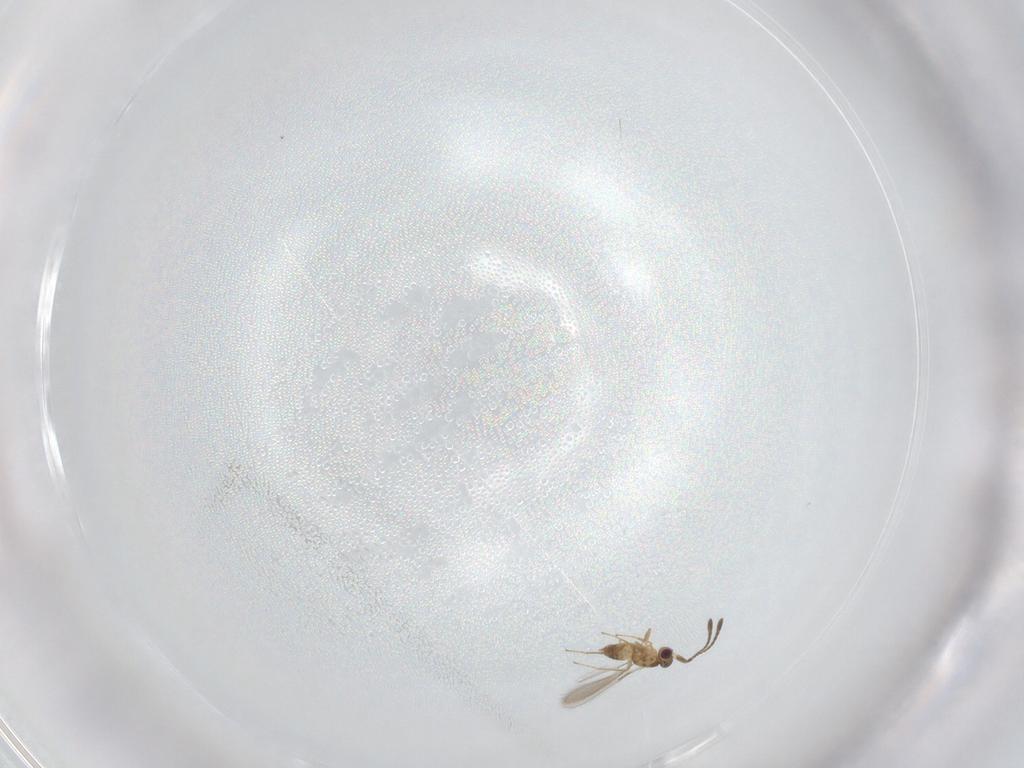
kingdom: Animalia
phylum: Arthropoda
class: Insecta
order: Hymenoptera
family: Mymaridae
